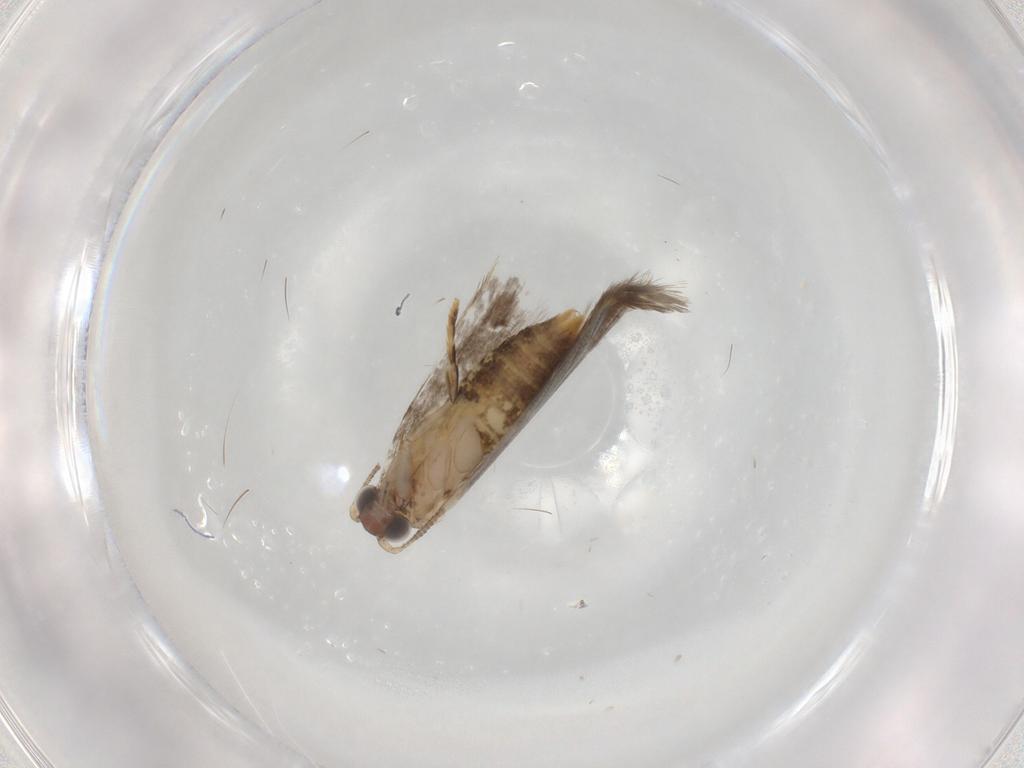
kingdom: Animalia
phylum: Arthropoda
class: Insecta
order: Lepidoptera
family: Tineidae
